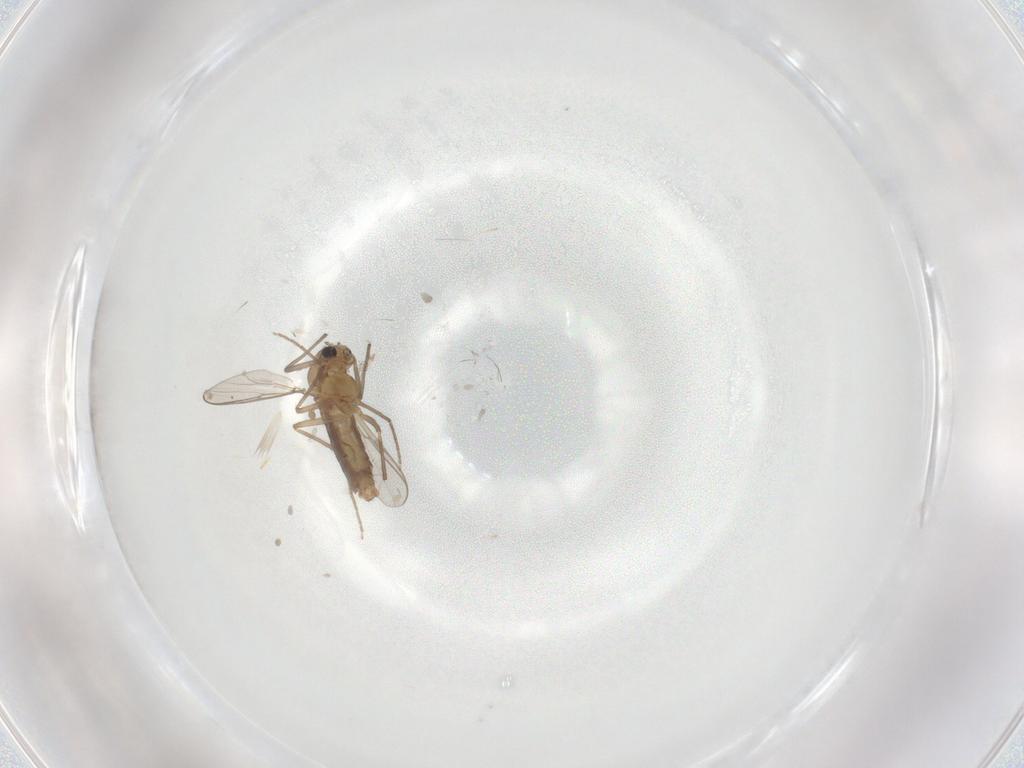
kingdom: Animalia
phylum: Arthropoda
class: Insecta
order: Diptera
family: Chironomidae
